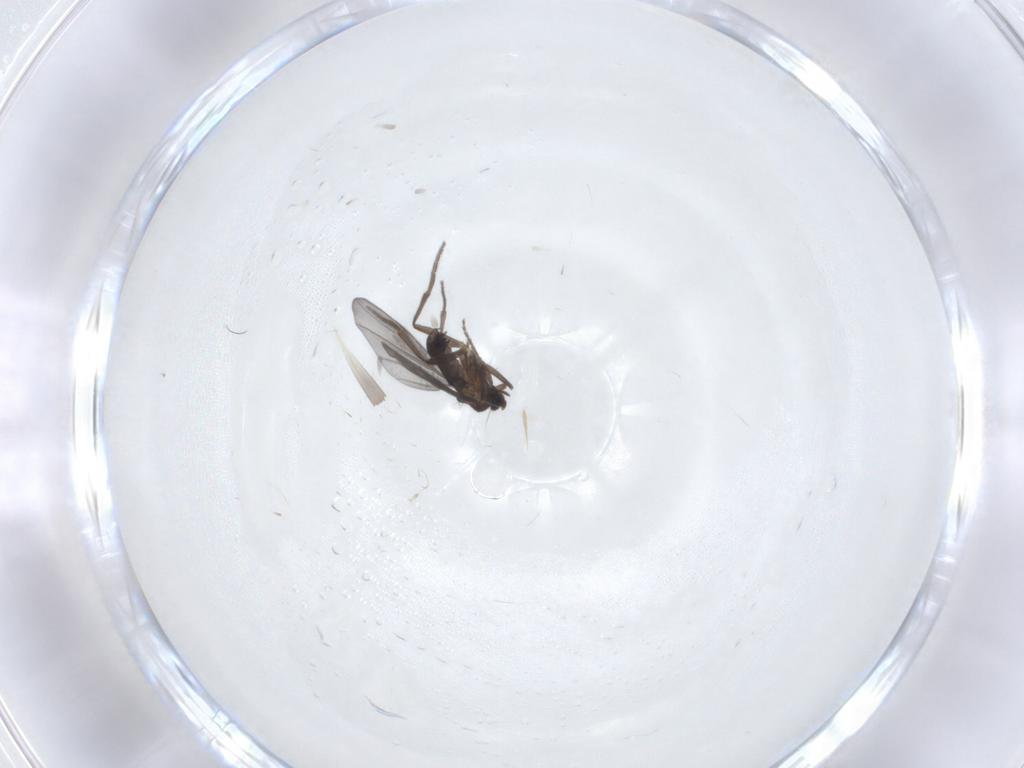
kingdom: Animalia
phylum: Arthropoda
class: Insecta
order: Diptera
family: Phoridae
